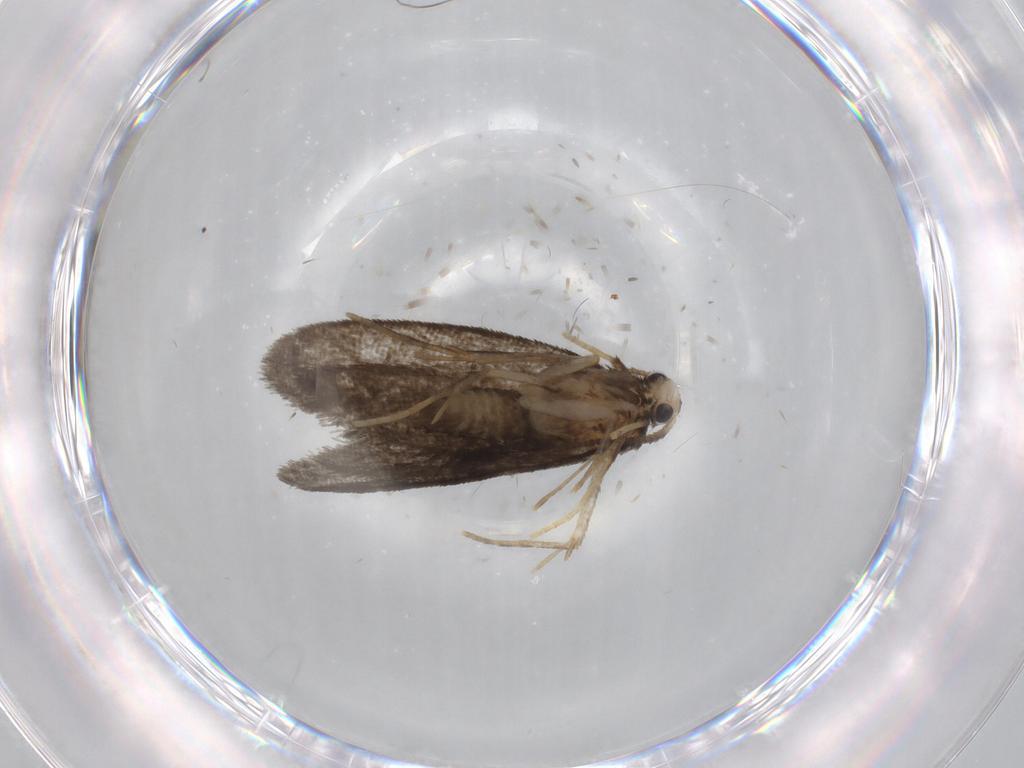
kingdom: Animalia
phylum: Arthropoda
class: Insecta
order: Lepidoptera
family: Psychidae
